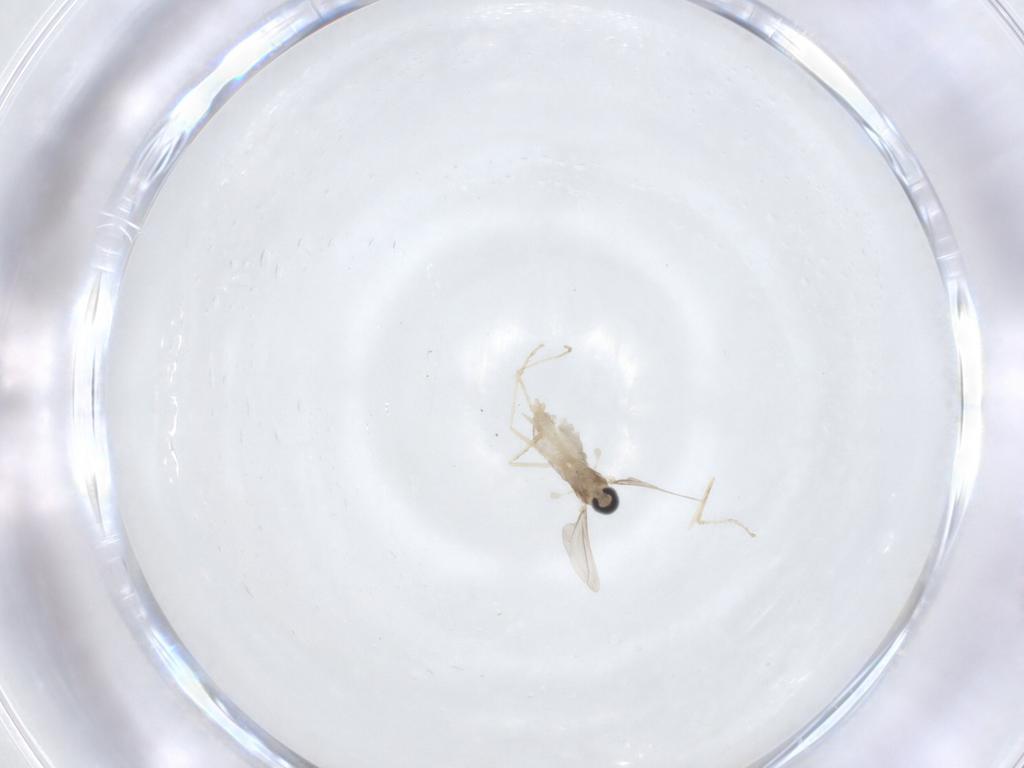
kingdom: Animalia
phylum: Arthropoda
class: Insecta
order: Diptera
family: Cecidomyiidae
